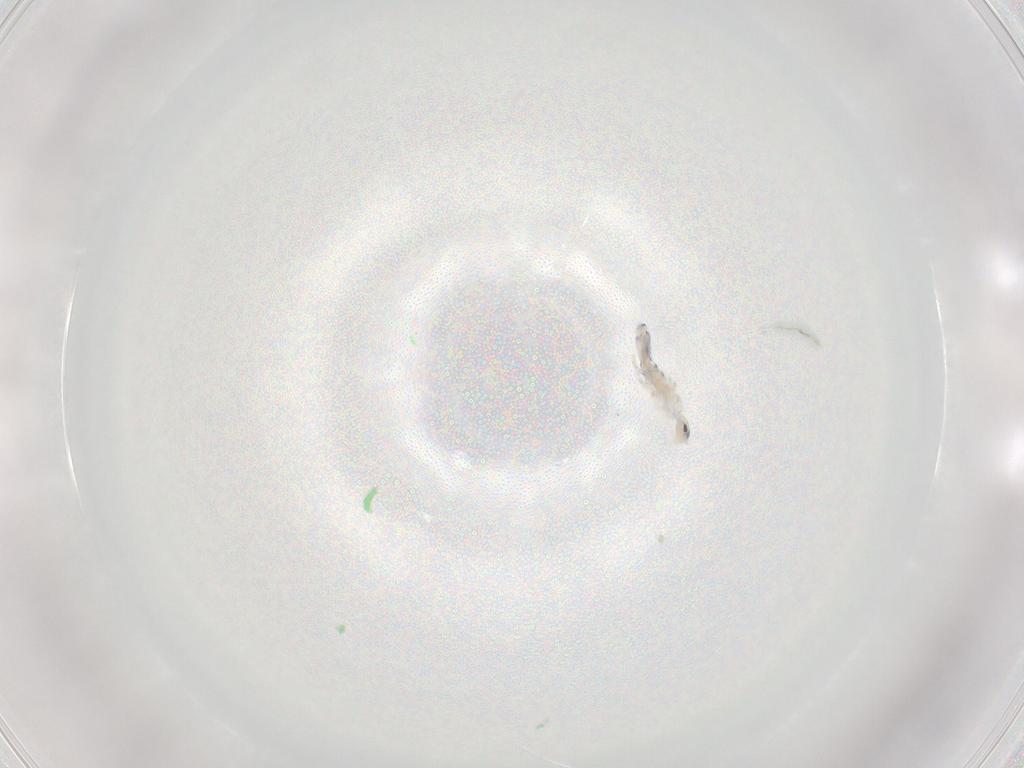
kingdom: Animalia
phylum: Arthropoda
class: Collembola
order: Entomobryomorpha
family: Entomobryidae
